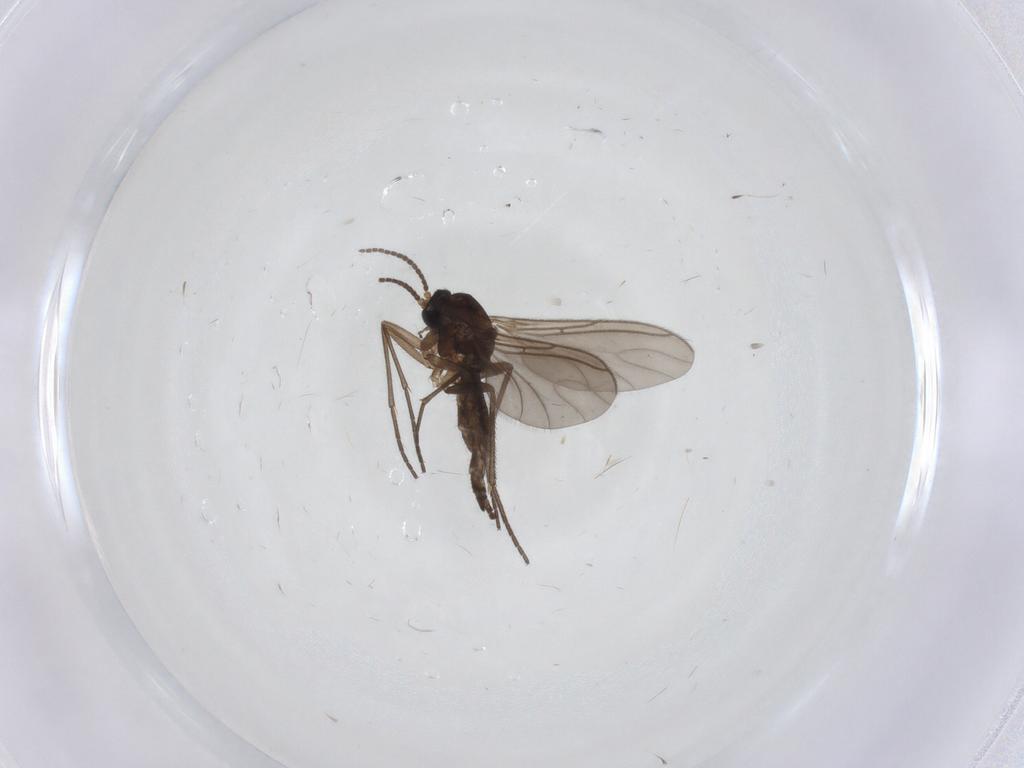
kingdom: Animalia
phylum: Arthropoda
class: Insecta
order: Diptera
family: Sciaridae
